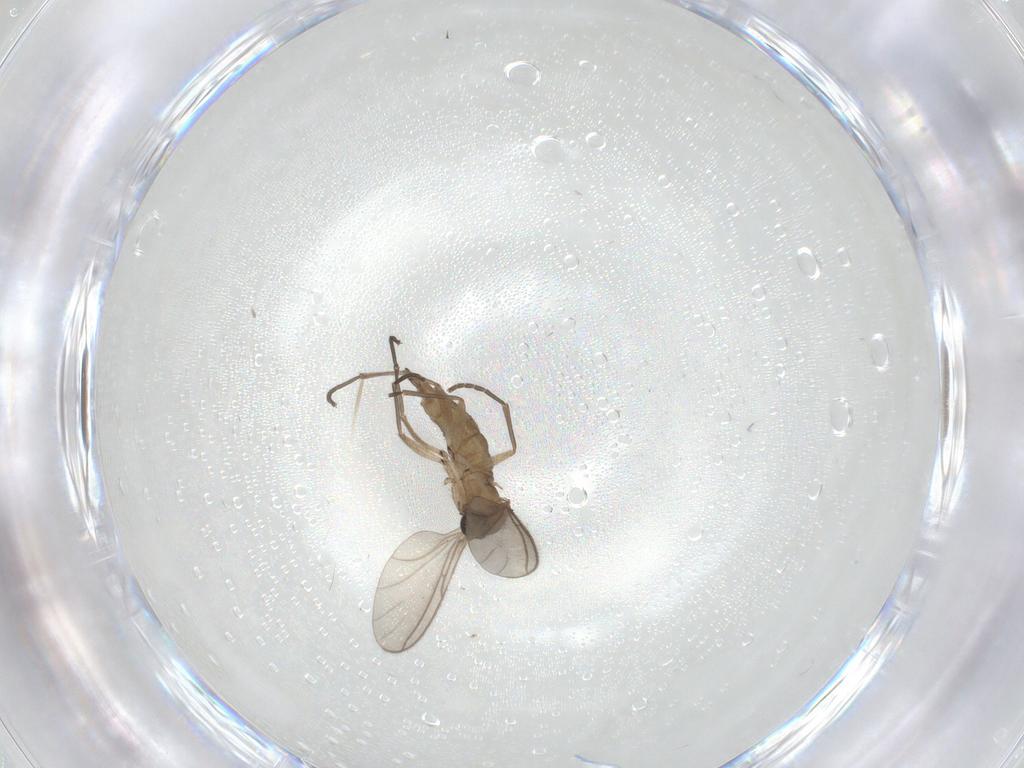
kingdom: Animalia
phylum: Arthropoda
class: Insecta
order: Diptera
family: Sciaridae
